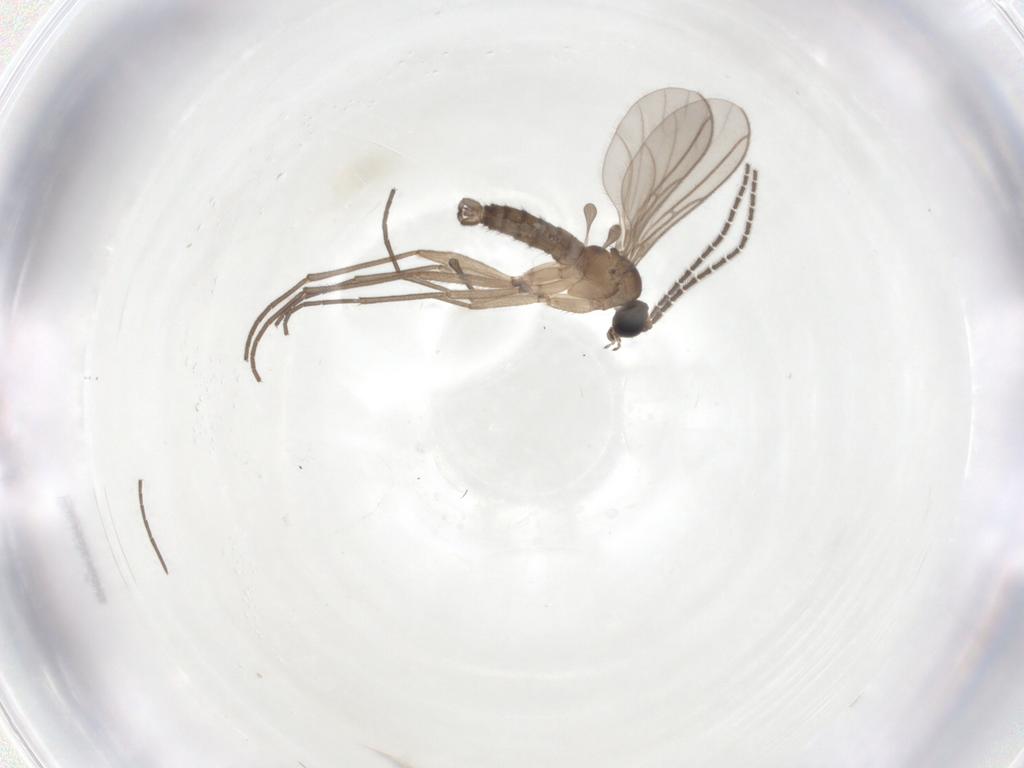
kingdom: Animalia
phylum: Arthropoda
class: Insecta
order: Diptera
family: Sciaridae
